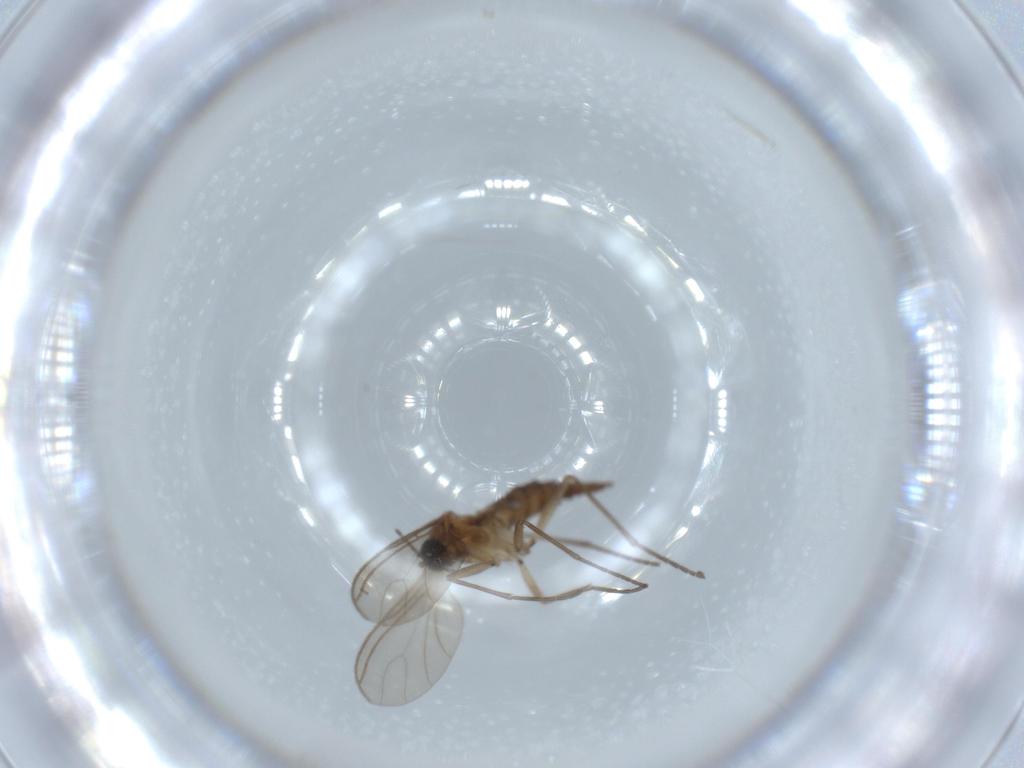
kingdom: Animalia
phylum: Arthropoda
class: Insecta
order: Diptera
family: Sciaridae
